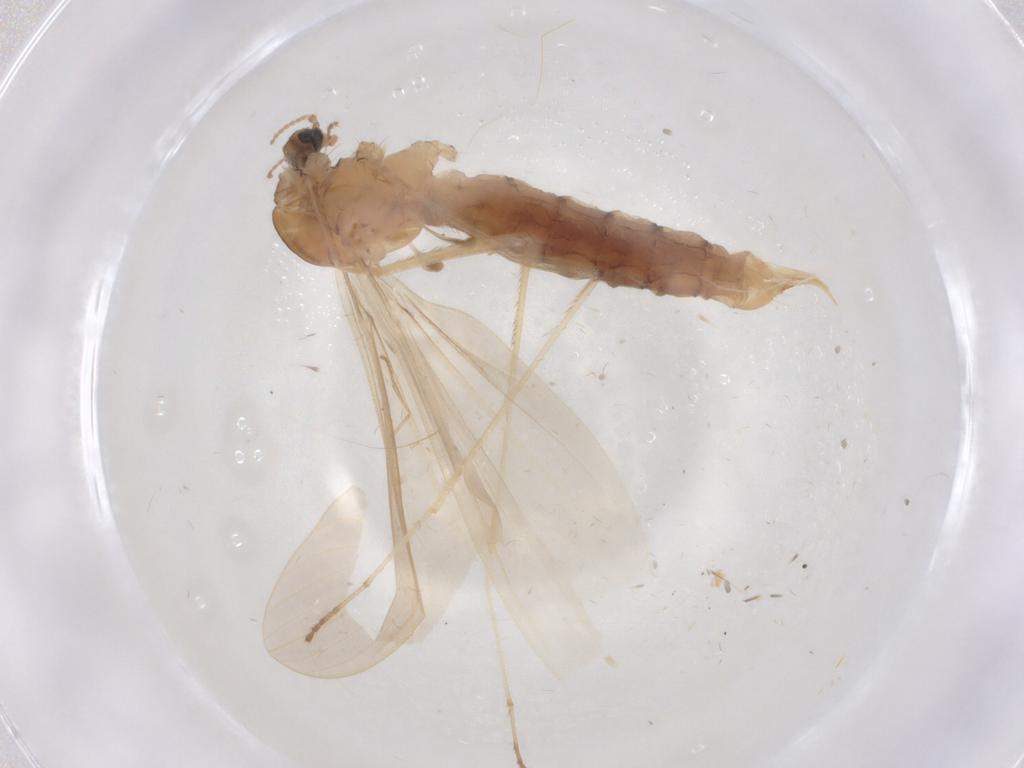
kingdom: Animalia
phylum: Arthropoda
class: Insecta
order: Diptera
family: Chironomidae
